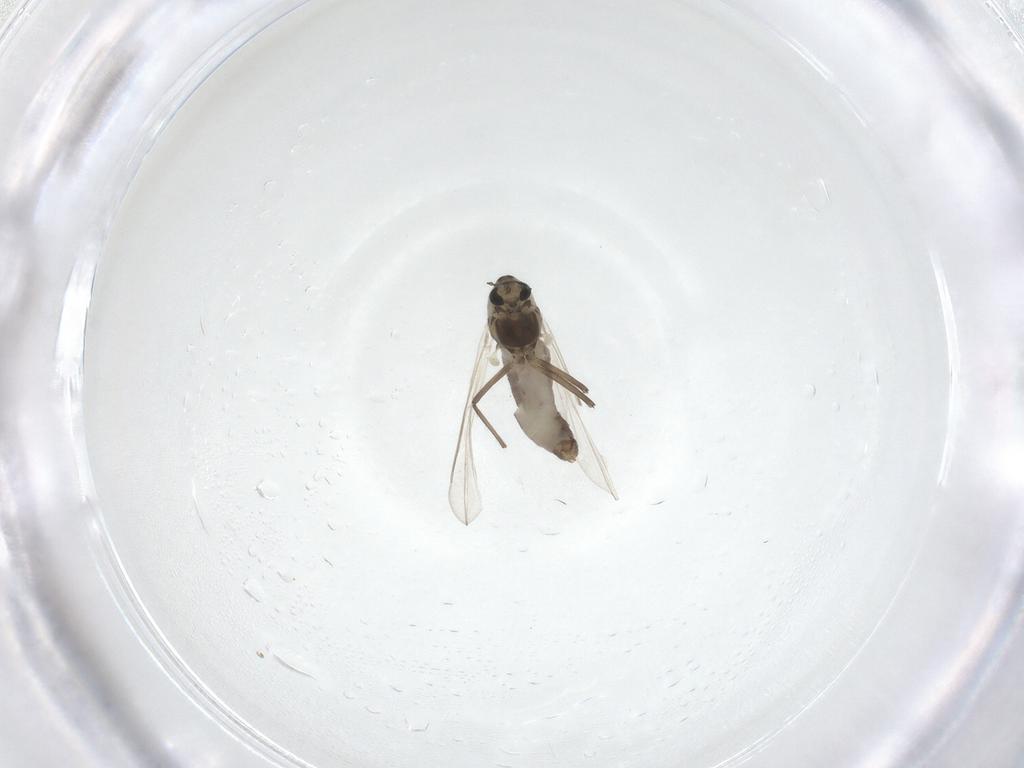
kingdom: Animalia
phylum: Arthropoda
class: Insecta
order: Diptera
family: Chironomidae
